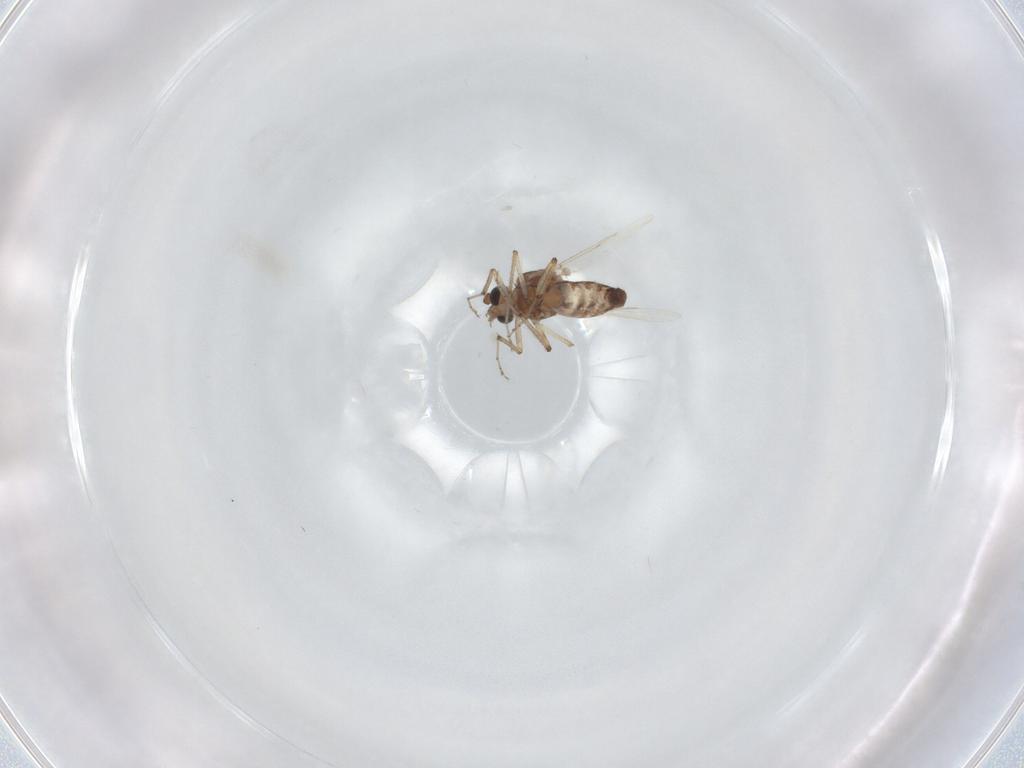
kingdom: Animalia
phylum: Arthropoda
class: Insecta
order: Diptera
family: Ceratopogonidae
